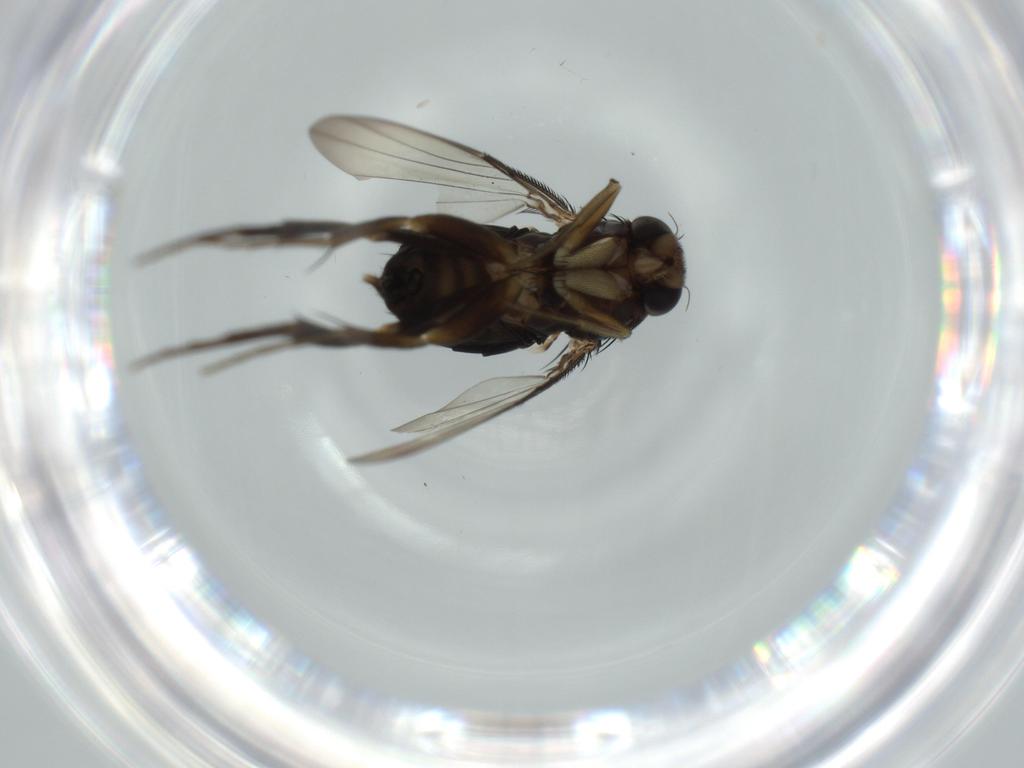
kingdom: Animalia
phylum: Arthropoda
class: Insecta
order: Diptera
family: Phoridae
